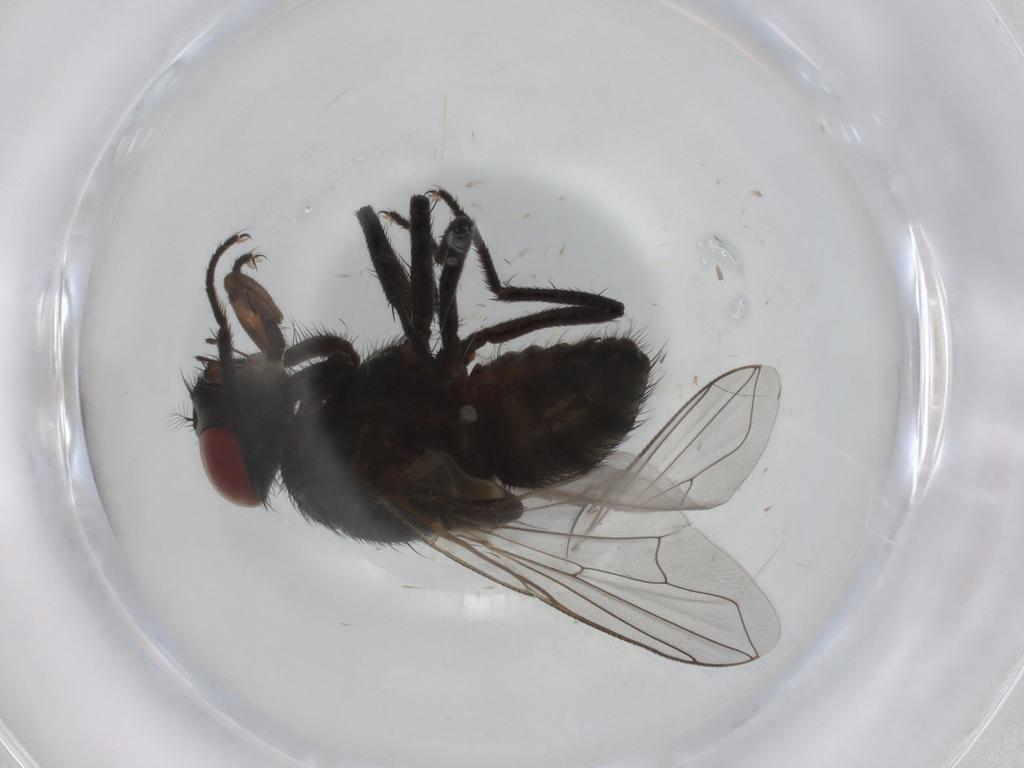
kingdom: Animalia
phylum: Arthropoda
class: Insecta
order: Diptera
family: Muscidae
